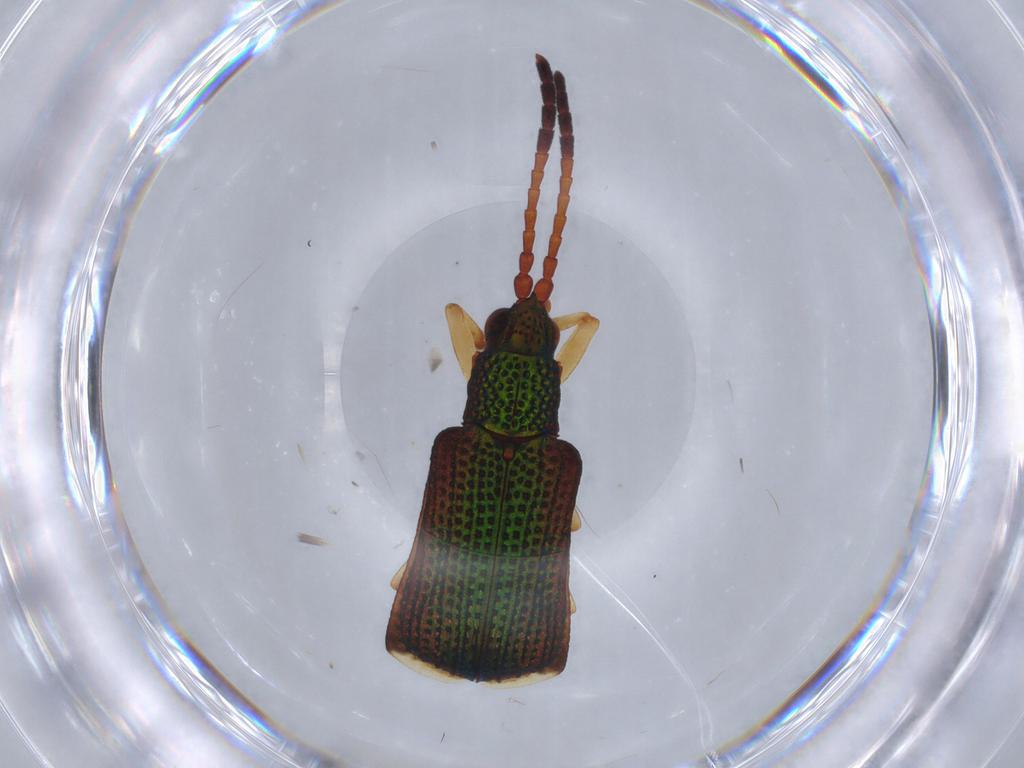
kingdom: Animalia
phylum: Arthropoda
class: Insecta
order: Coleoptera
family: Chrysomelidae
